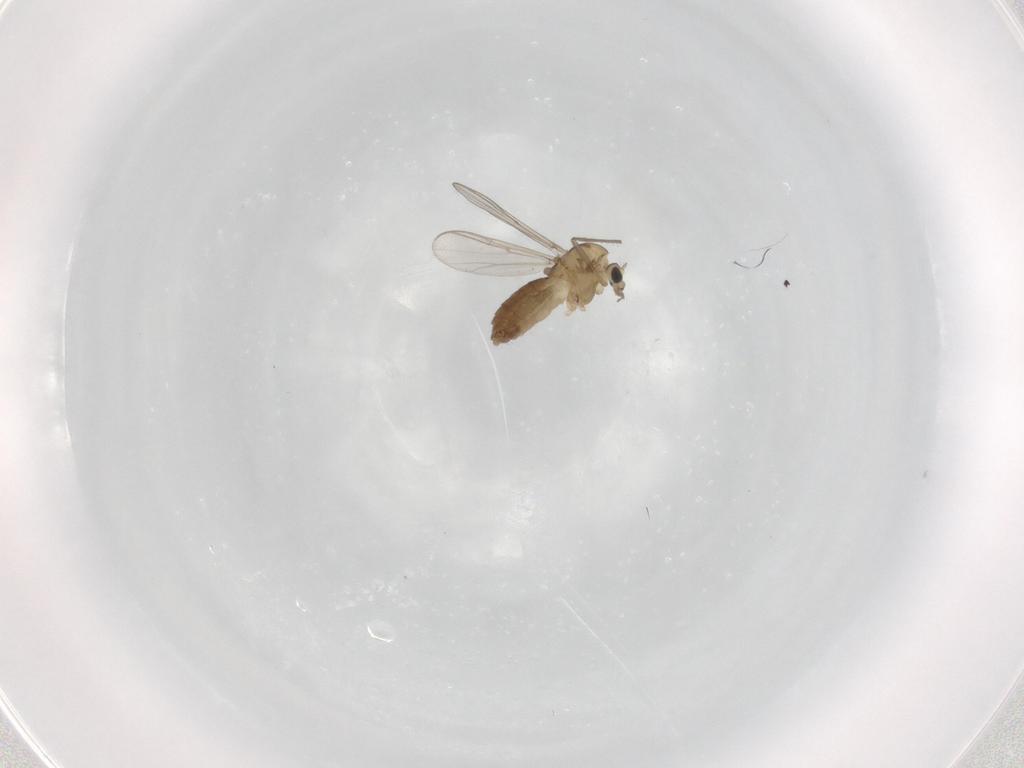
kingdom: Animalia
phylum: Arthropoda
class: Insecta
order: Diptera
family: Chironomidae
